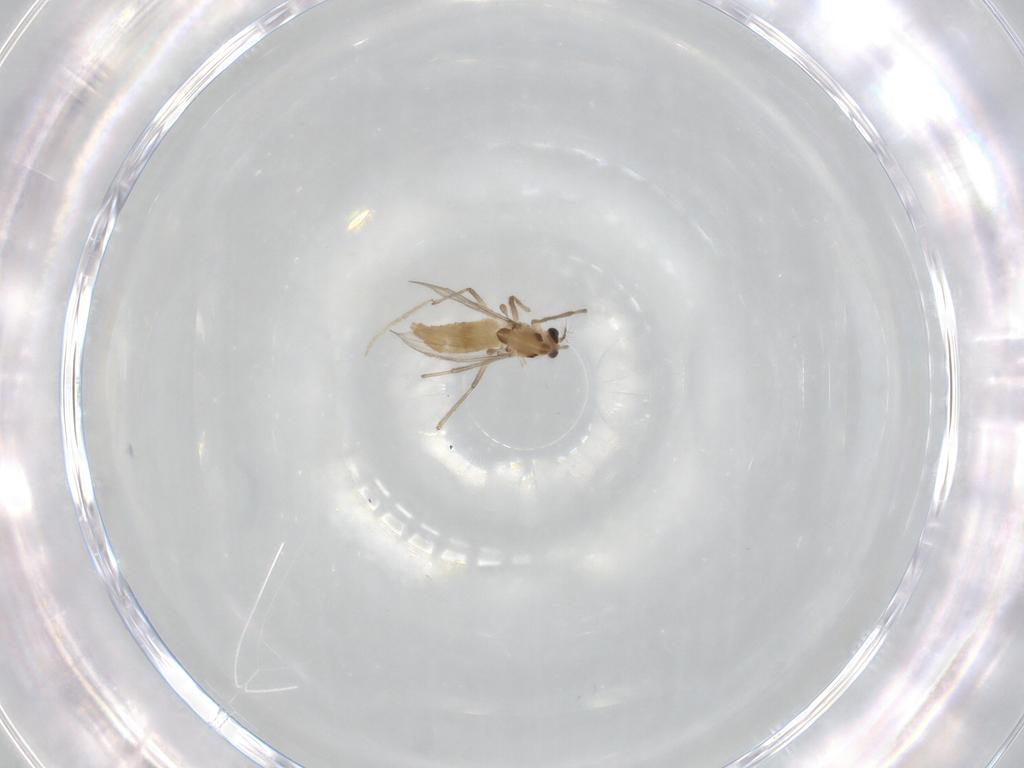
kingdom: Animalia
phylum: Arthropoda
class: Insecta
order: Diptera
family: Chironomidae
